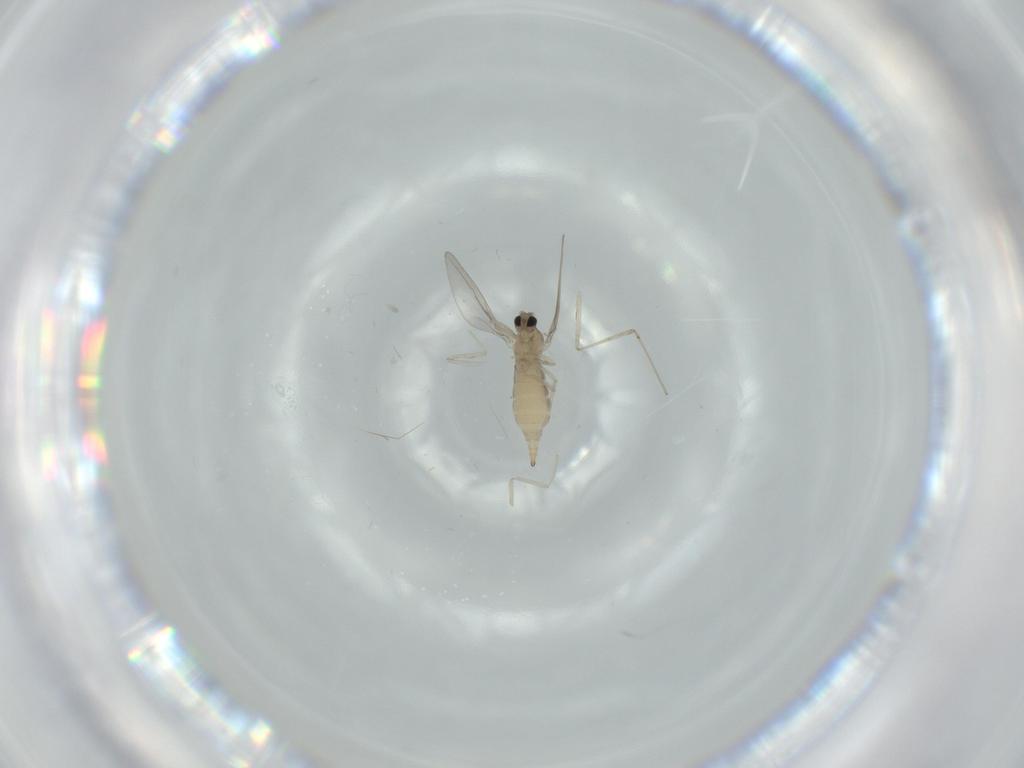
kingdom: Animalia
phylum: Arthropoda
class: Insecta
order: Diptera
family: Cecidomyiidae
